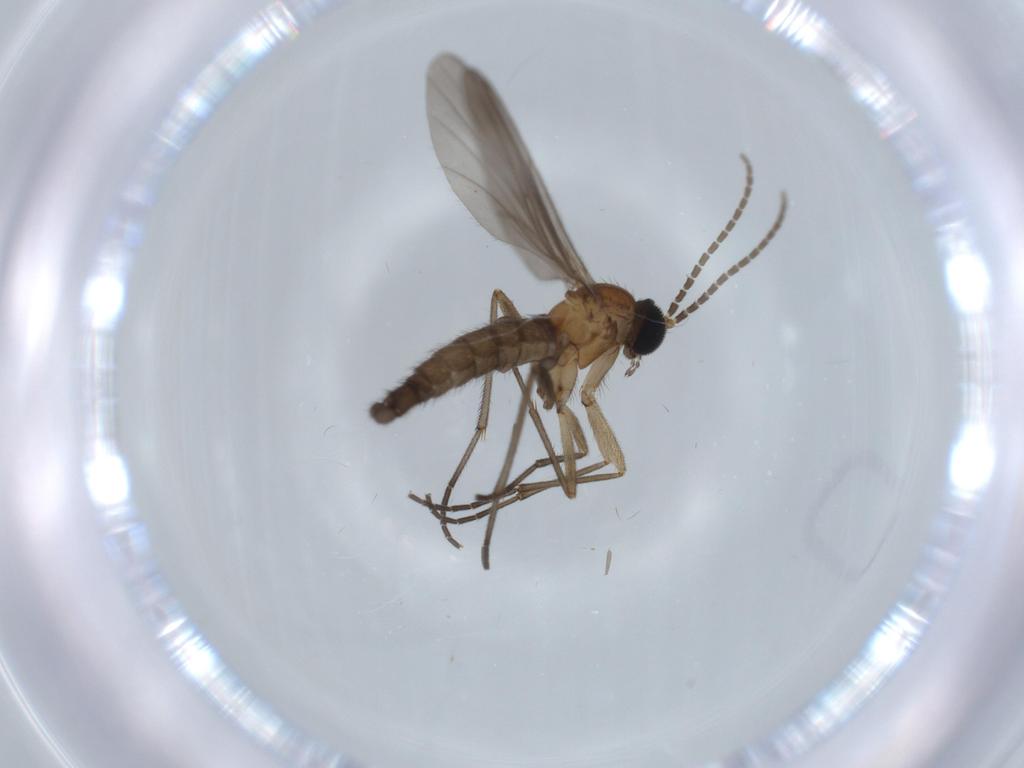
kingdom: Animalia
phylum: Arthropoda
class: Insecta
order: Diptera
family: Sciaridae
